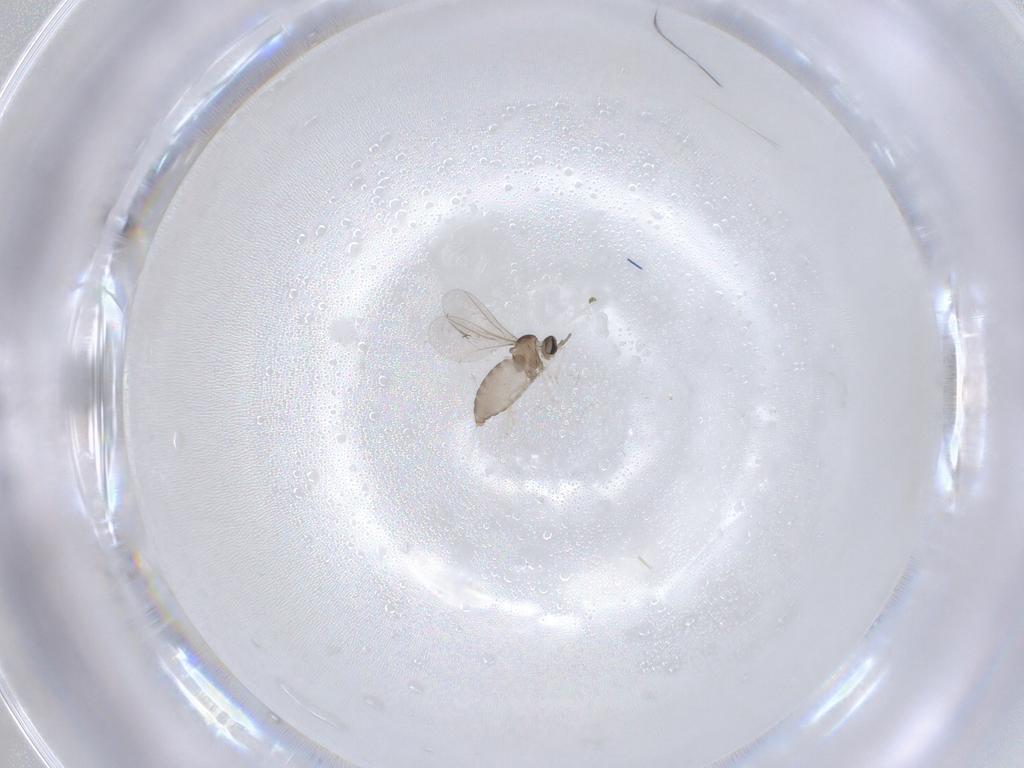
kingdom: Animalia
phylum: Arthropoda
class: Insecta
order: Diptera
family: Cecidomyiidae
